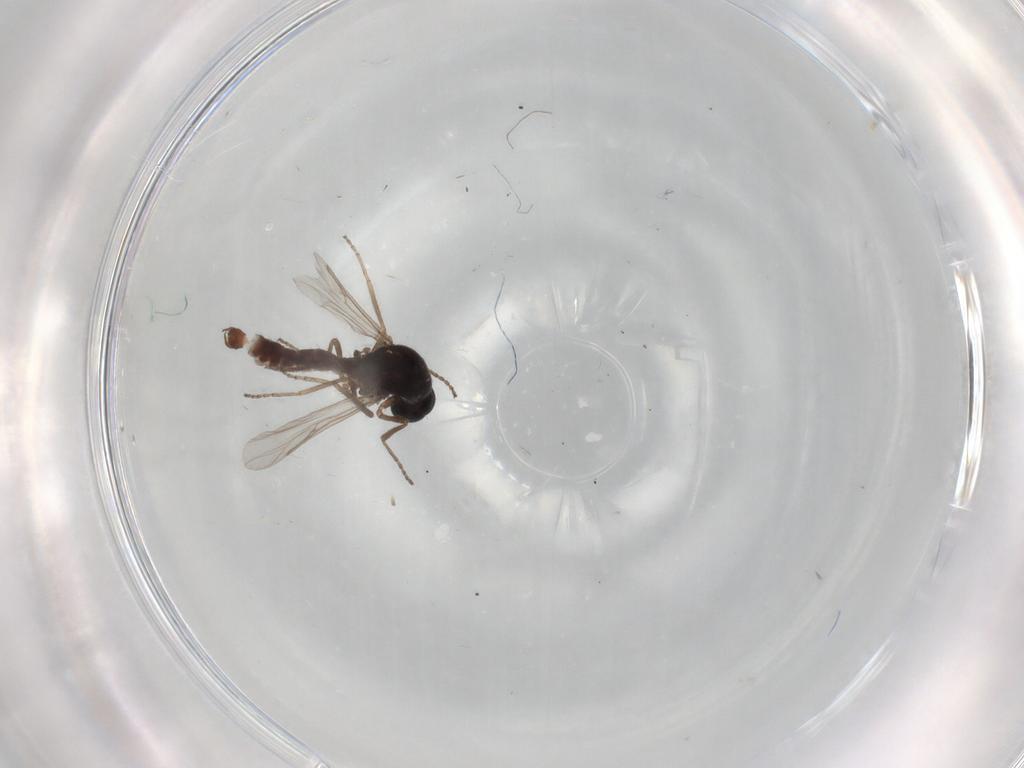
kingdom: Animalia
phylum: Arthropoda
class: Insecta
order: Diptera
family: Ceratopogonidae
